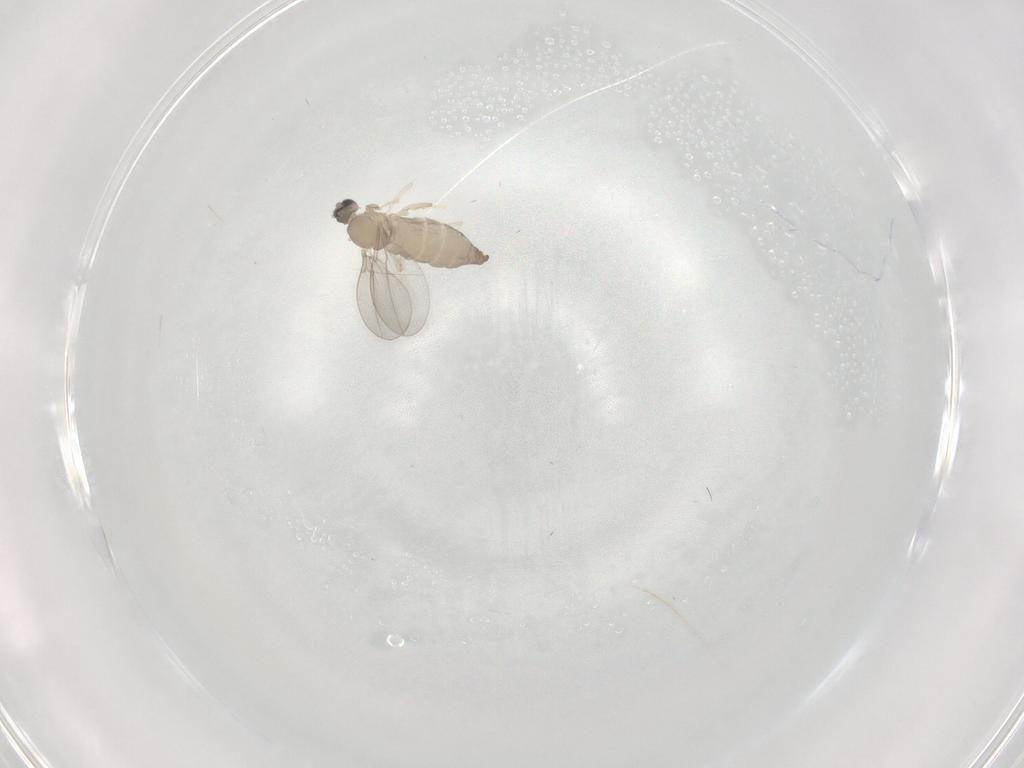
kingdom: Animalia
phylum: Arthropoda
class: Insecta
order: Diptera
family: Cecidomyiidae
